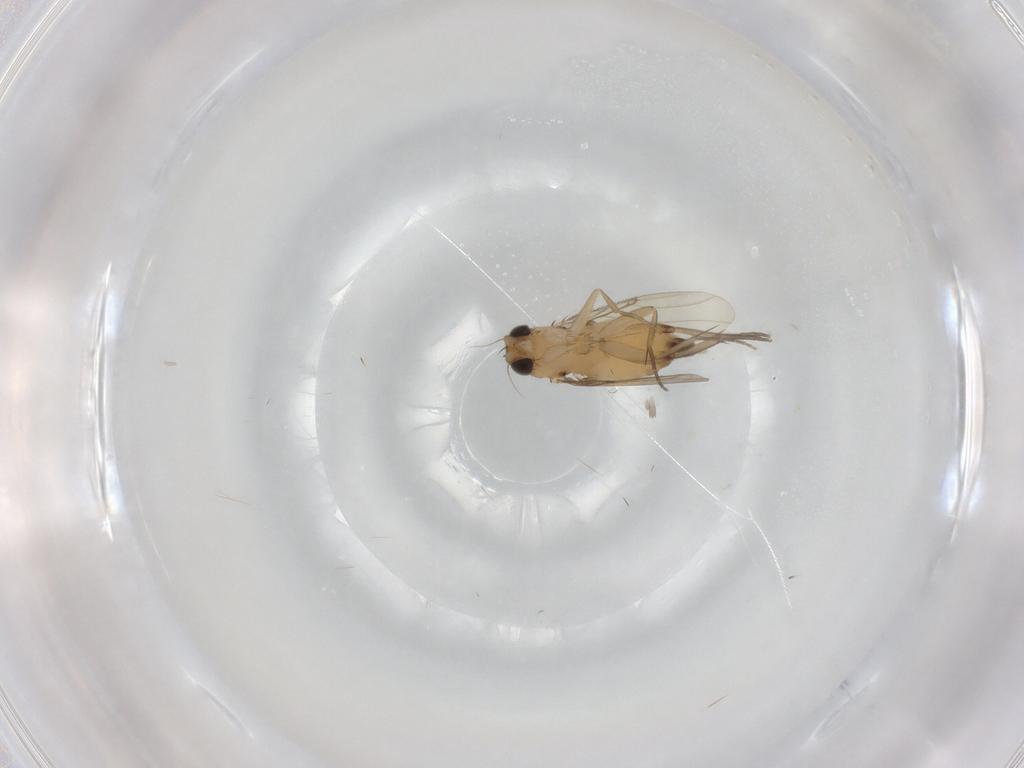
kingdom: Animalia
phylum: Arthropoda
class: Insecta
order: Diptera
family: Phoridae
